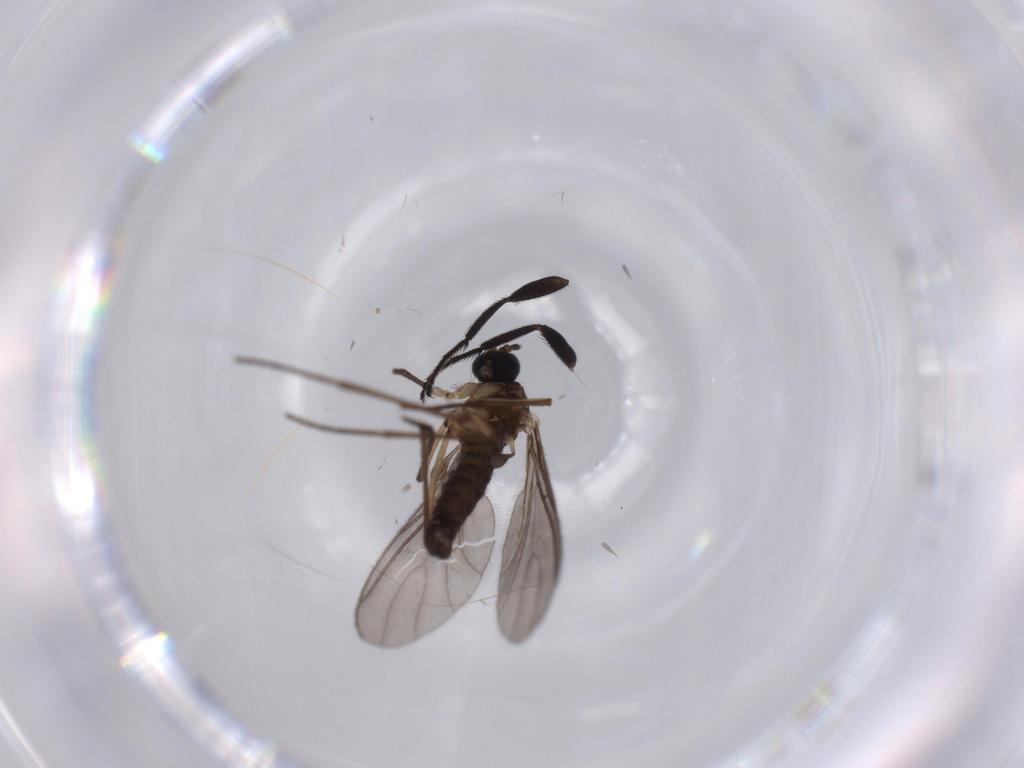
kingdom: Animalia
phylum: Arthropoda
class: Insecta
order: Diptera
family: Sciaridae
